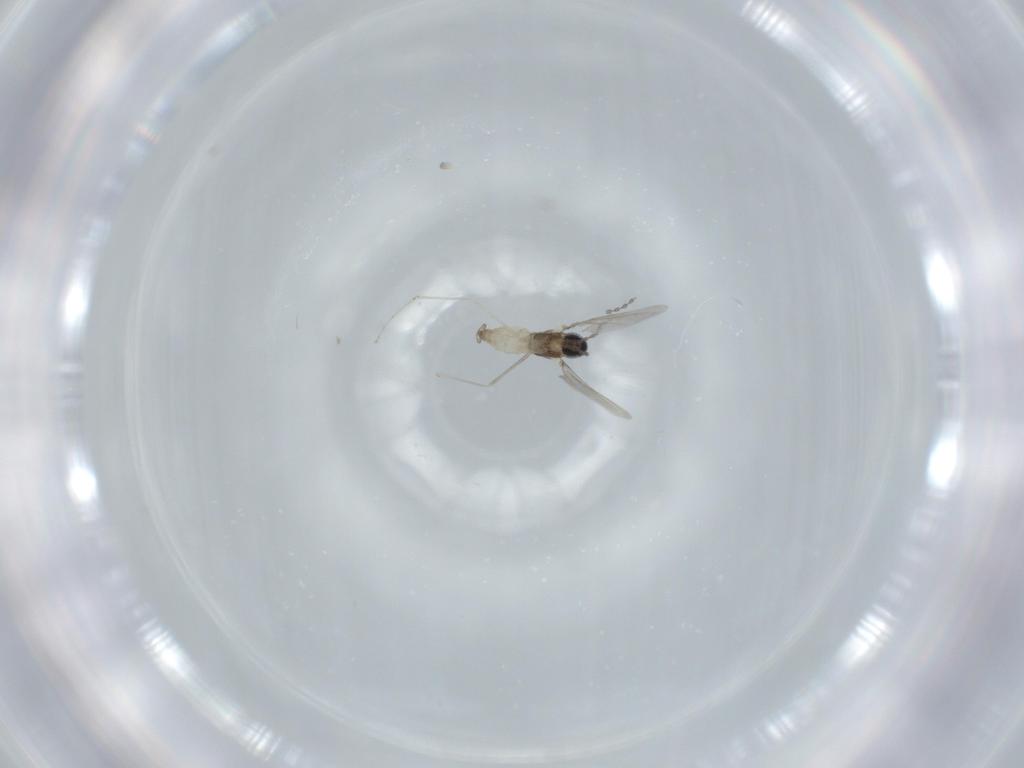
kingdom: Animalia
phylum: Arthropoda
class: Insecta
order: Diptera
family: Cecidomyiidae
